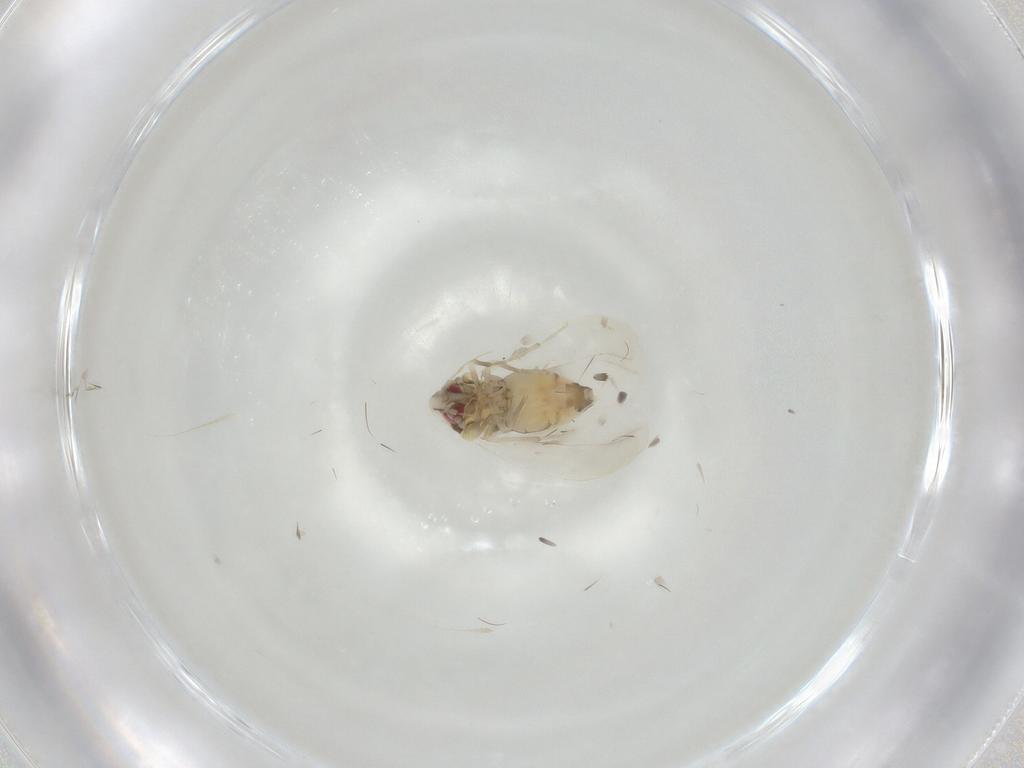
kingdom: Animalia
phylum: Arthropoda
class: Insecta
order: Hemiptera
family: Aleyrodidae
